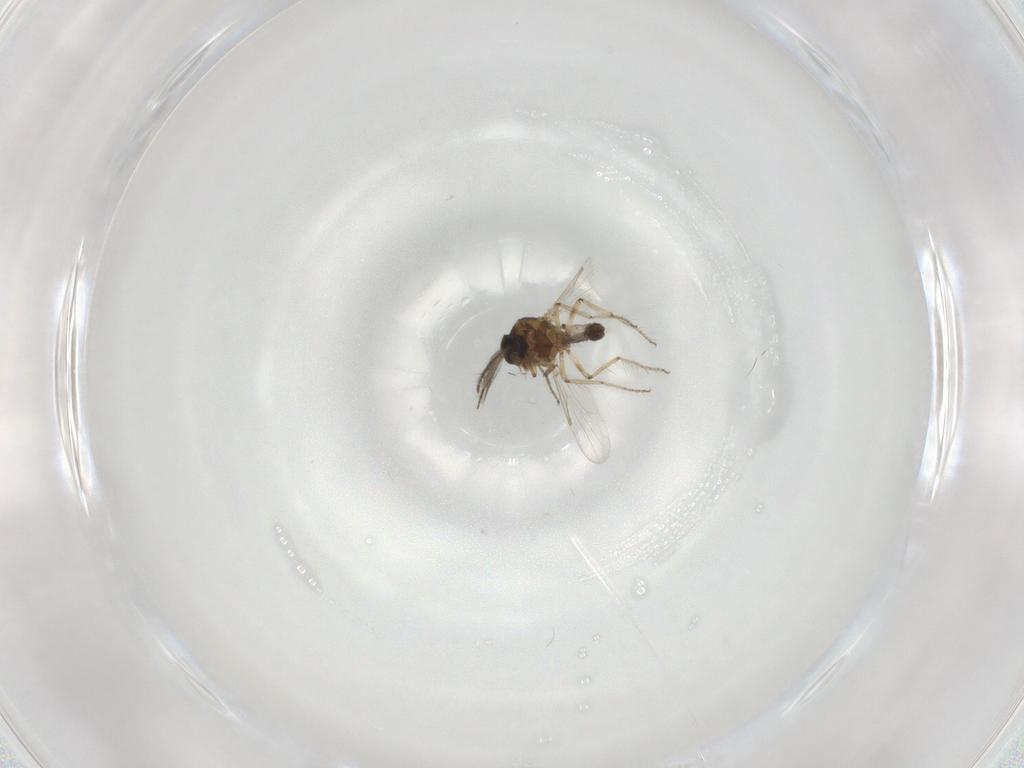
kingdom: Animalia
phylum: Arthropoda
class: Insecta
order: Diptera
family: Ceratopogonidae
